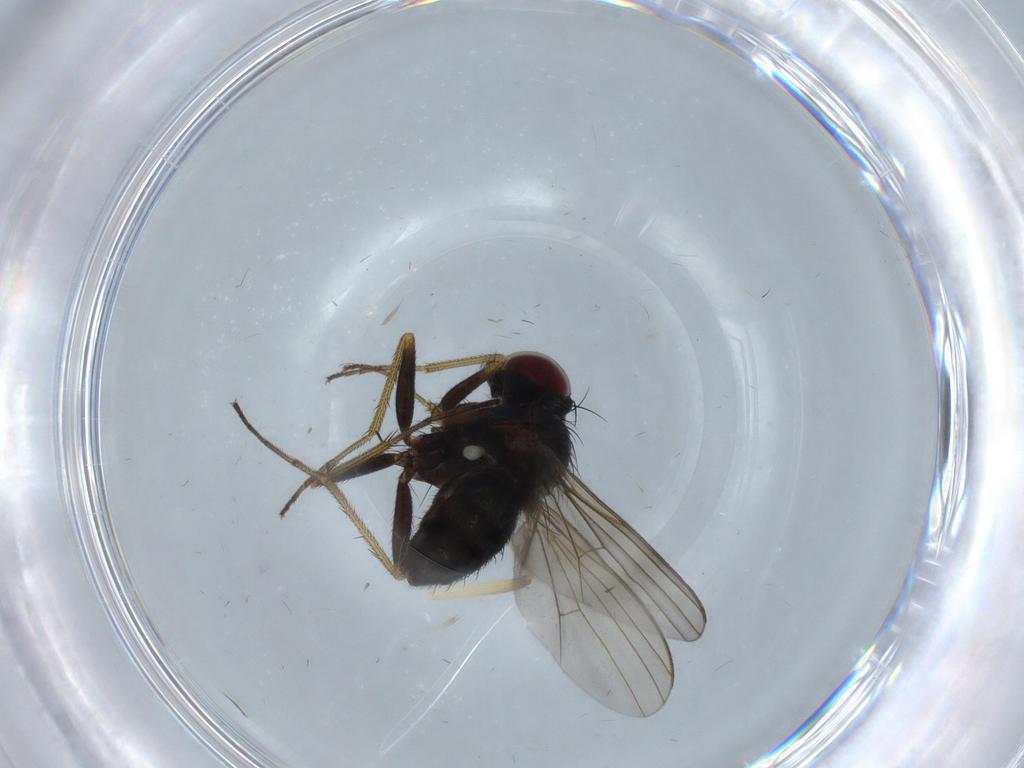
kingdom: Animalia
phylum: Arthropoda
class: Insecta
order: Diptera
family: Dolichopodidae
